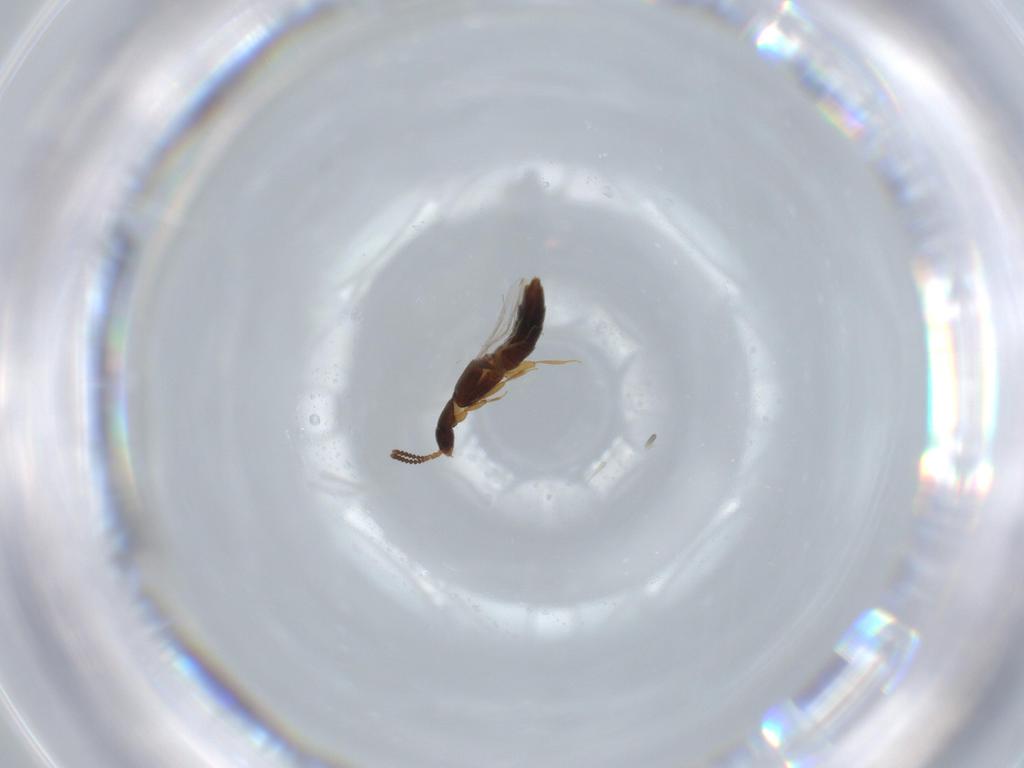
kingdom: Animalia
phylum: Arthropoda
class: Insecta
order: Coleoptera
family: Staphylinidae
